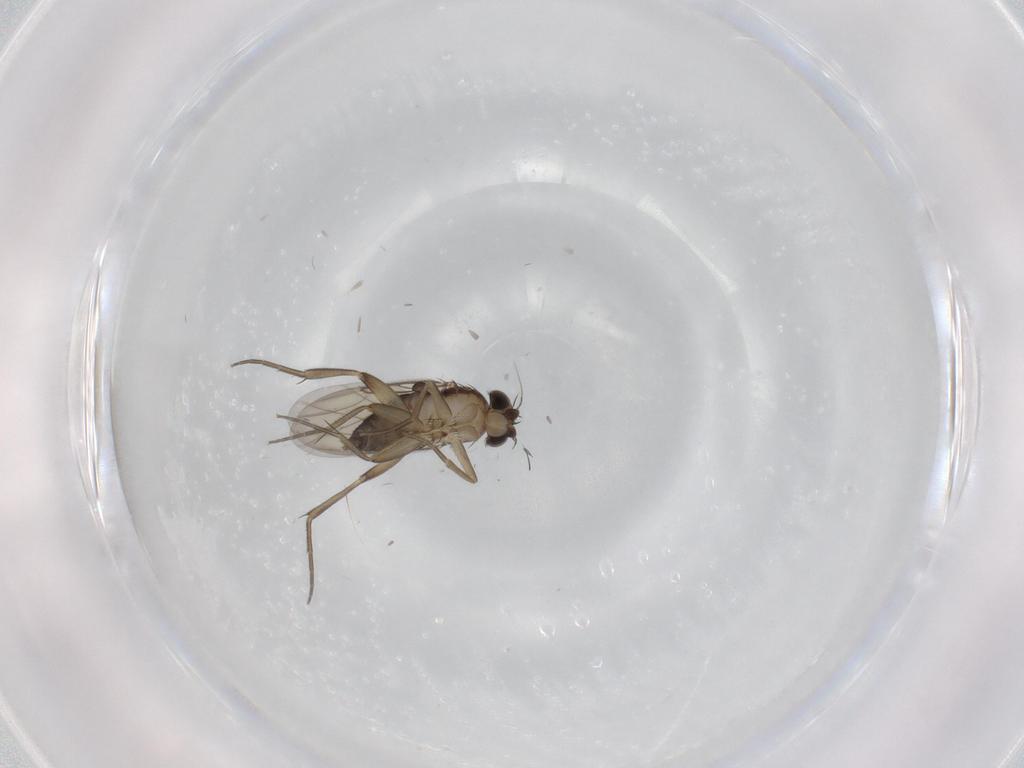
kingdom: Animalia
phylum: Arthropoda
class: Insecta
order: Diptera
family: Phoridae
